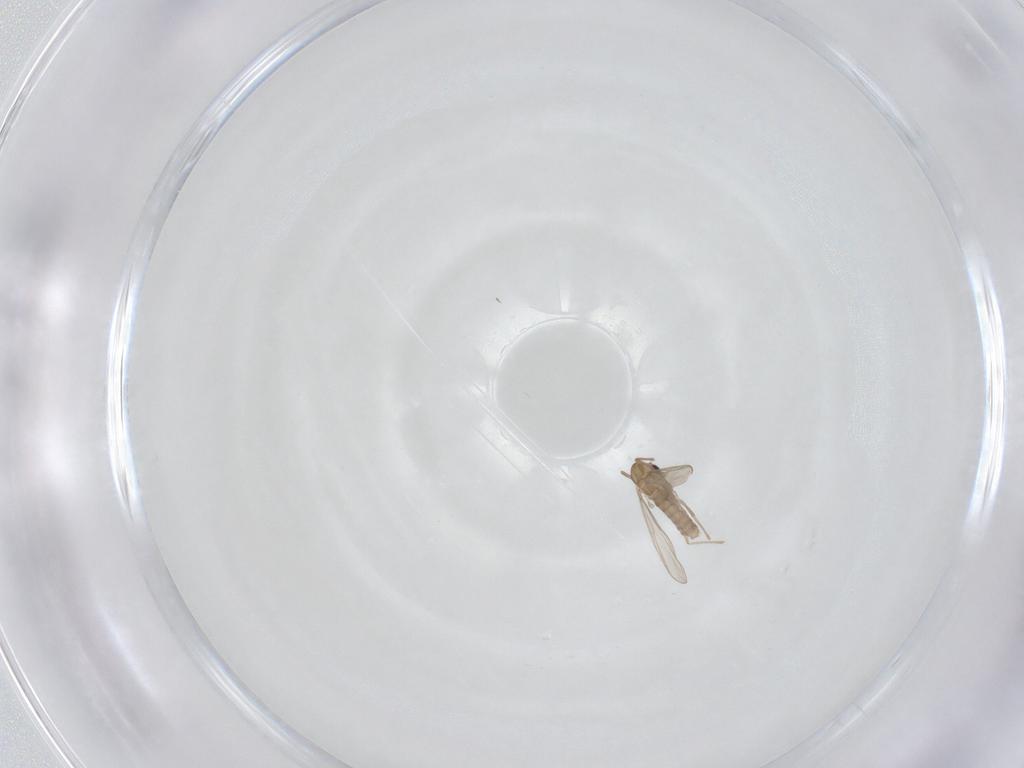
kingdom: Animalia
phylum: Arthropoda
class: Insecta
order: Diptera
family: Chironomidae
